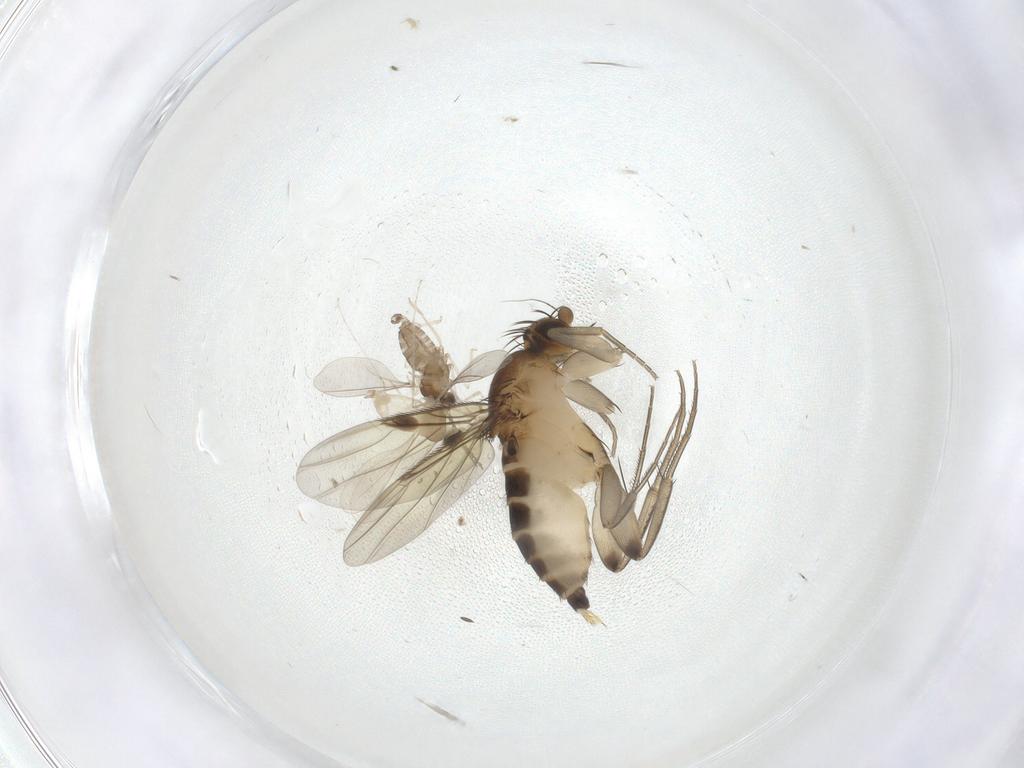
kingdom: Animalia
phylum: Arthropoda
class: Insecta
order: Diptera
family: Cecidomyiidae
